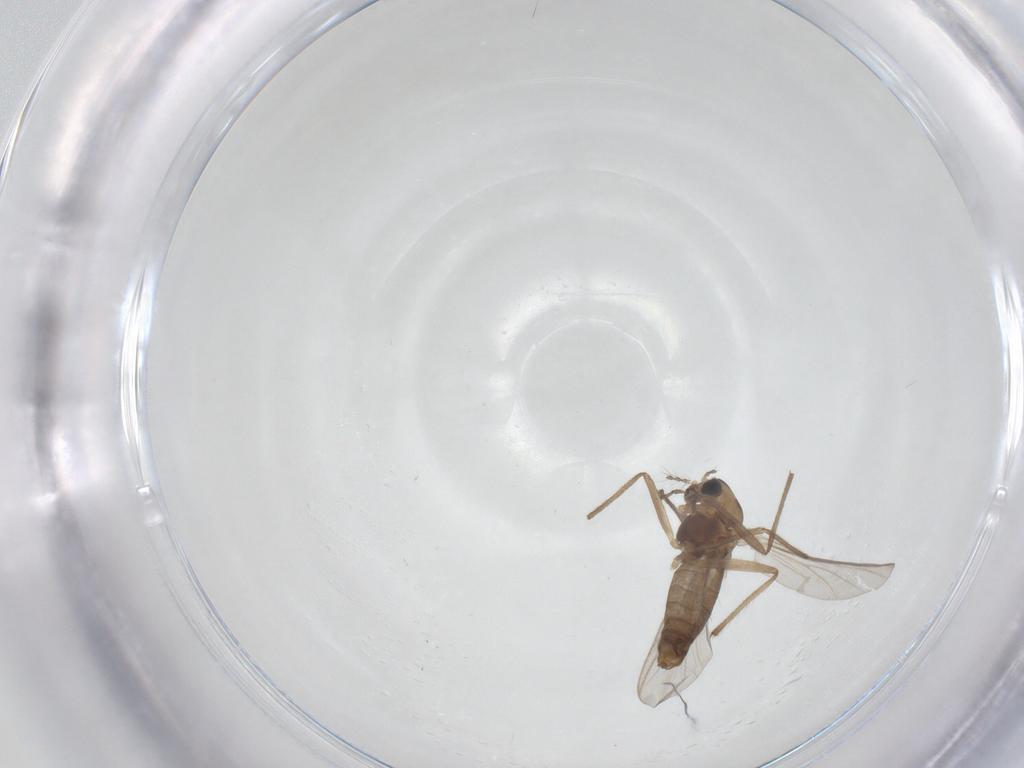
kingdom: Animalia
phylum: Arthropoda
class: Insecta
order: Diptera
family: Chironomidae
